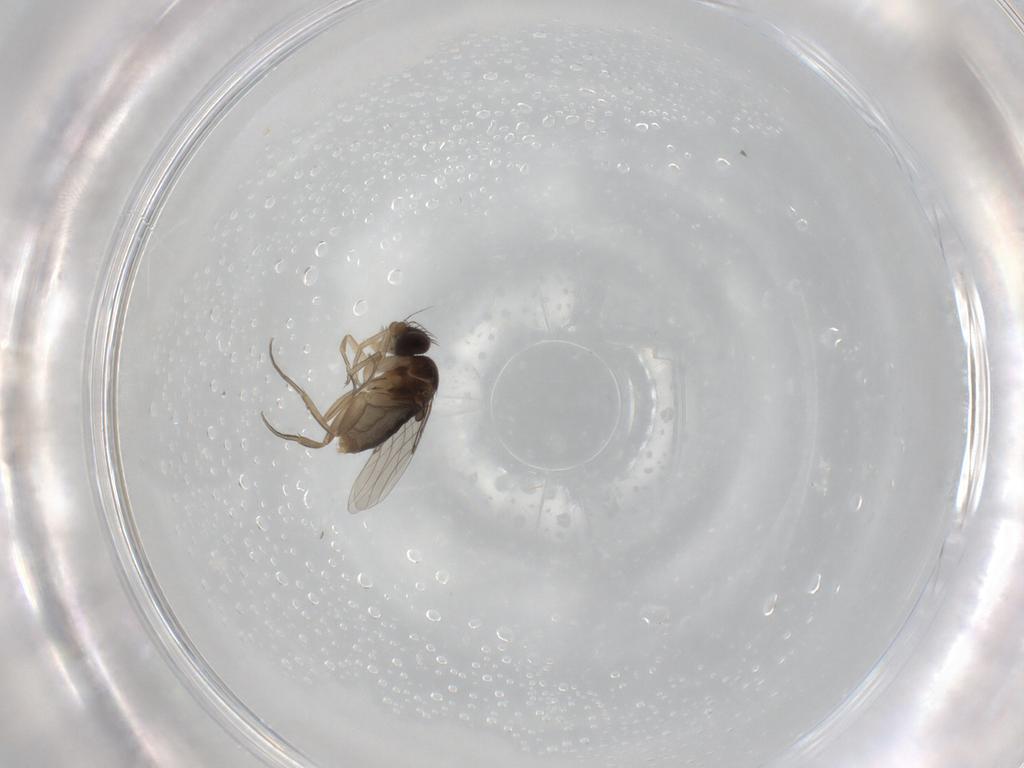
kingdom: Animalia
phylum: Arthropoda
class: Insecta
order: Diptera
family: Phoridae
